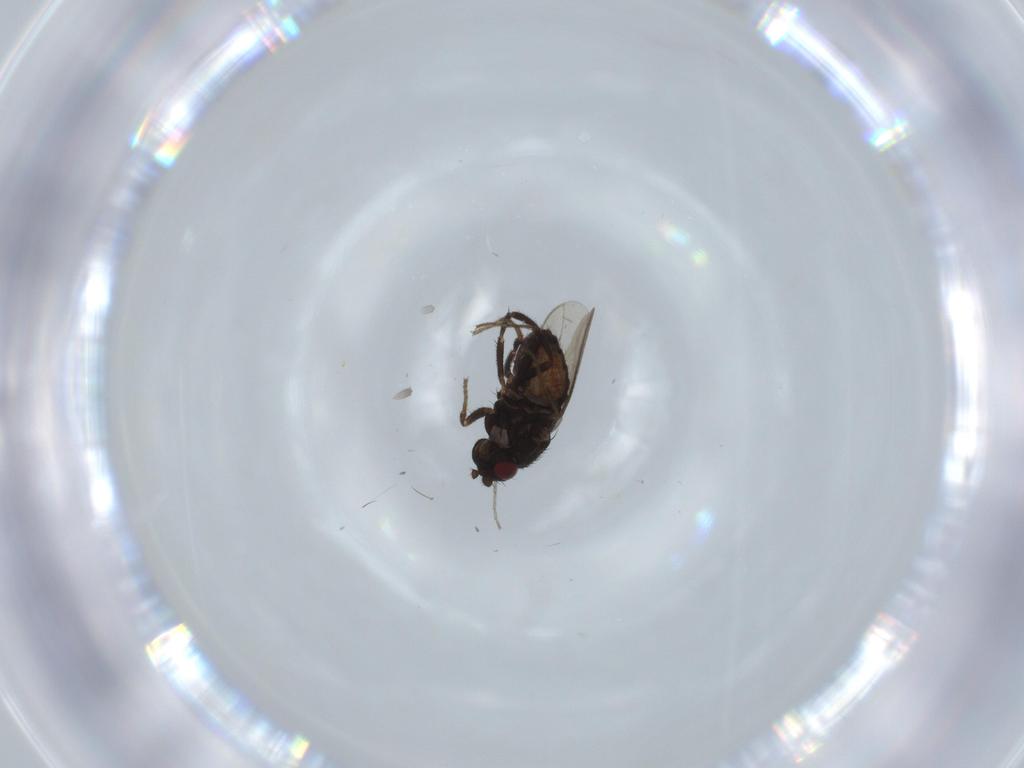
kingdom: Animalia
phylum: Arthropoda
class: Insecta
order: Diptera
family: Sphaeroceridae
